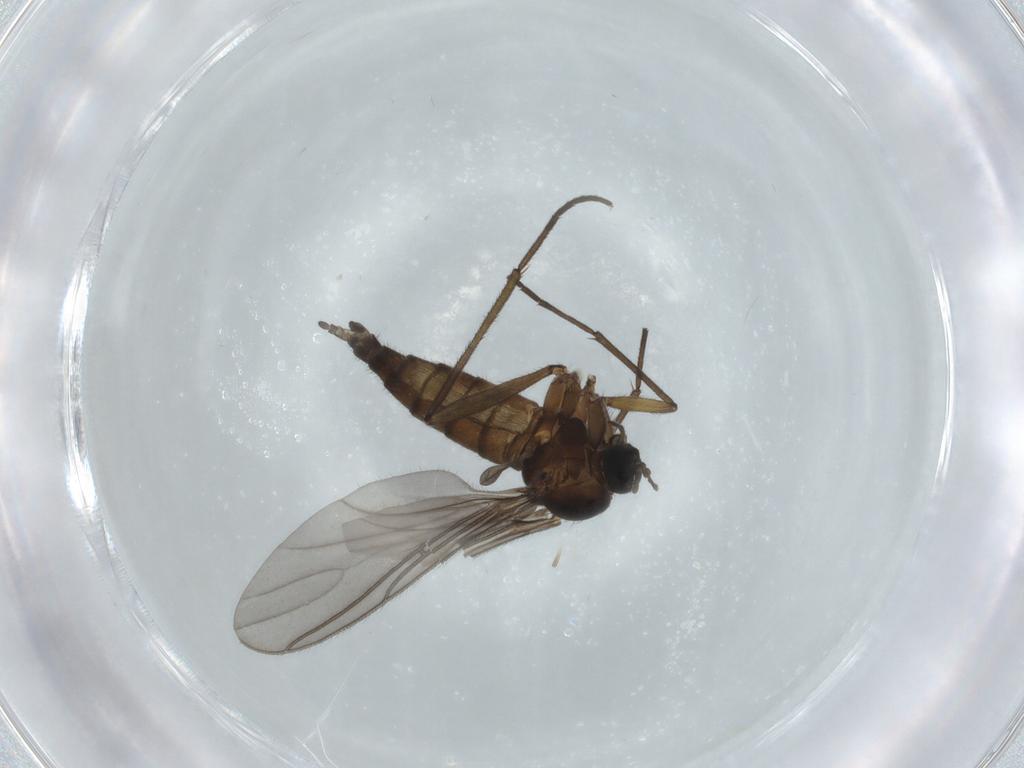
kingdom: Animalia
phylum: Arthropoda
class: Insecta
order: Diptera
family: Sciaridae
